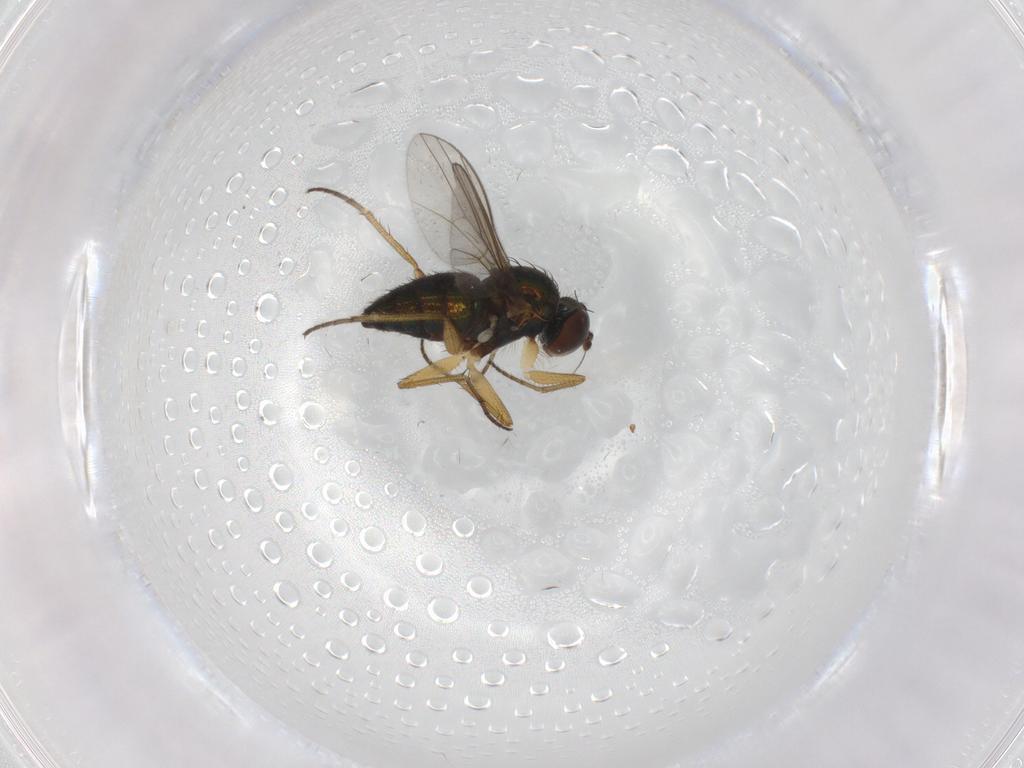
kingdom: Animalia
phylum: Arthropoda
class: Insecta
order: Diptera
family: Dolichopodidae
